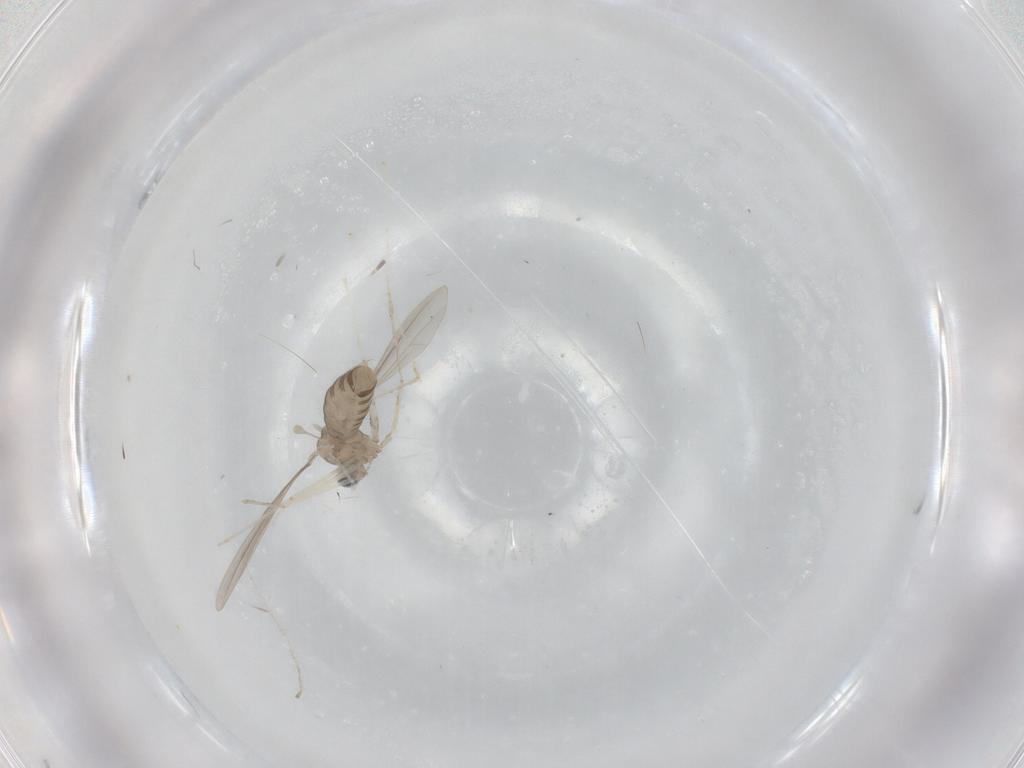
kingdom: Animalia
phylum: Arthropoda
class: Insecta
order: Diptera
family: Cecidomyiidae
